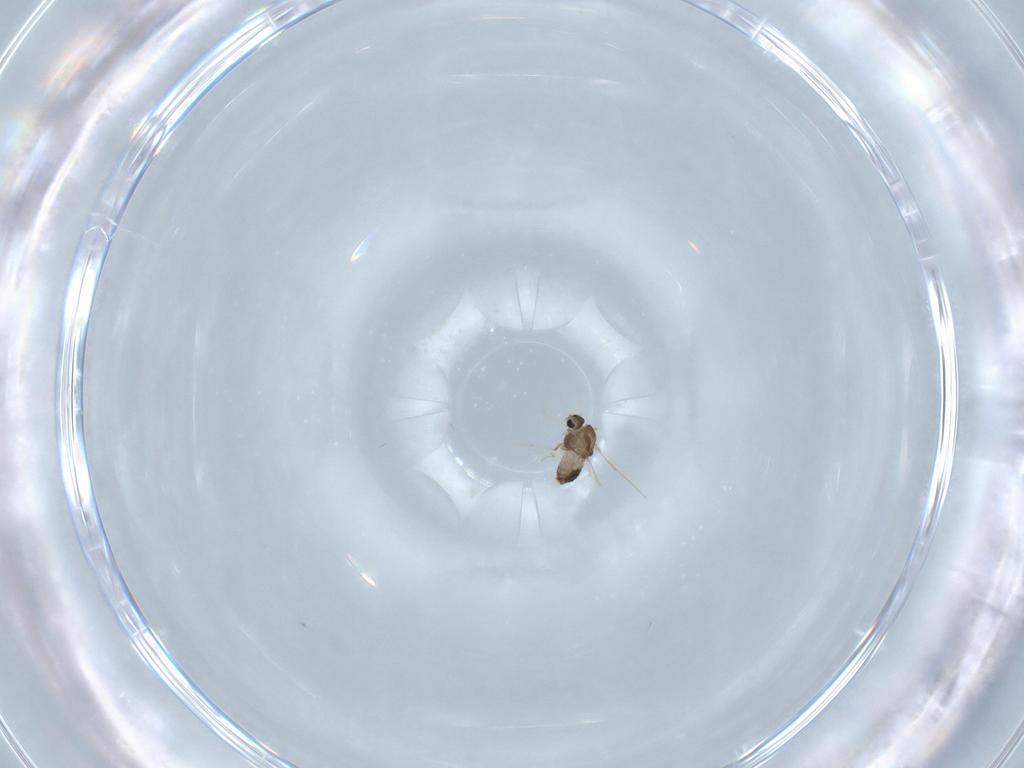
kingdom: Animalia
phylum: Arthropoda
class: Insecta
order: Diptera
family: Chironomidae
